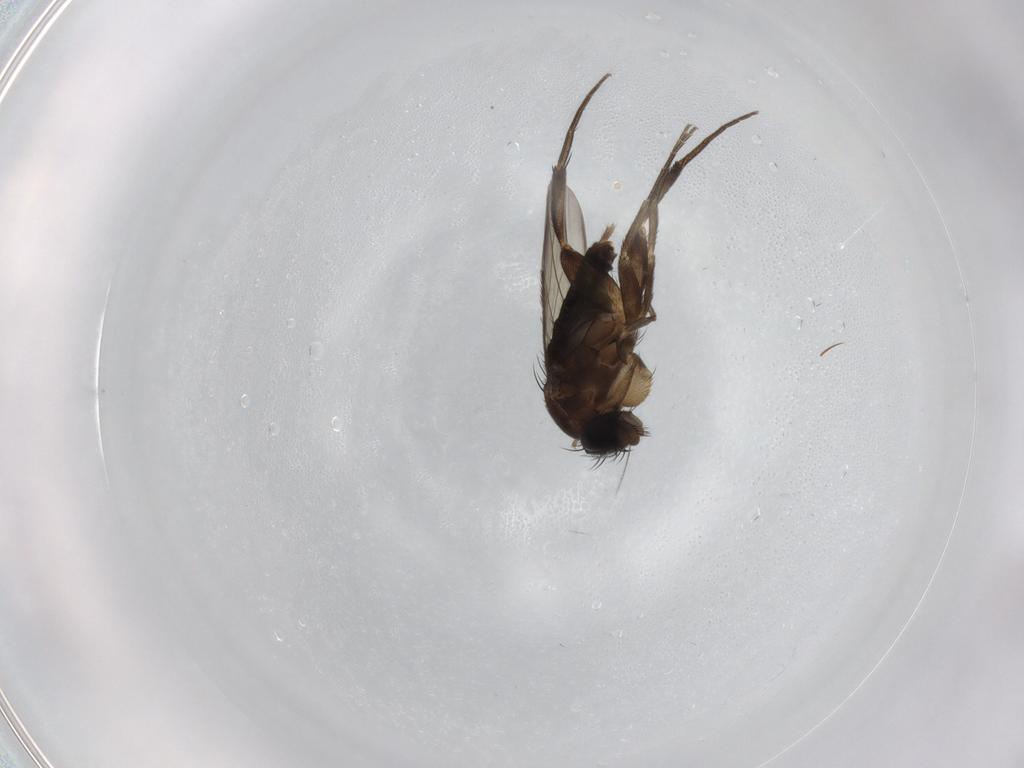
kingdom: Animalia
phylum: Arthropoda
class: Insecta
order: Diptera
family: Phoridae
